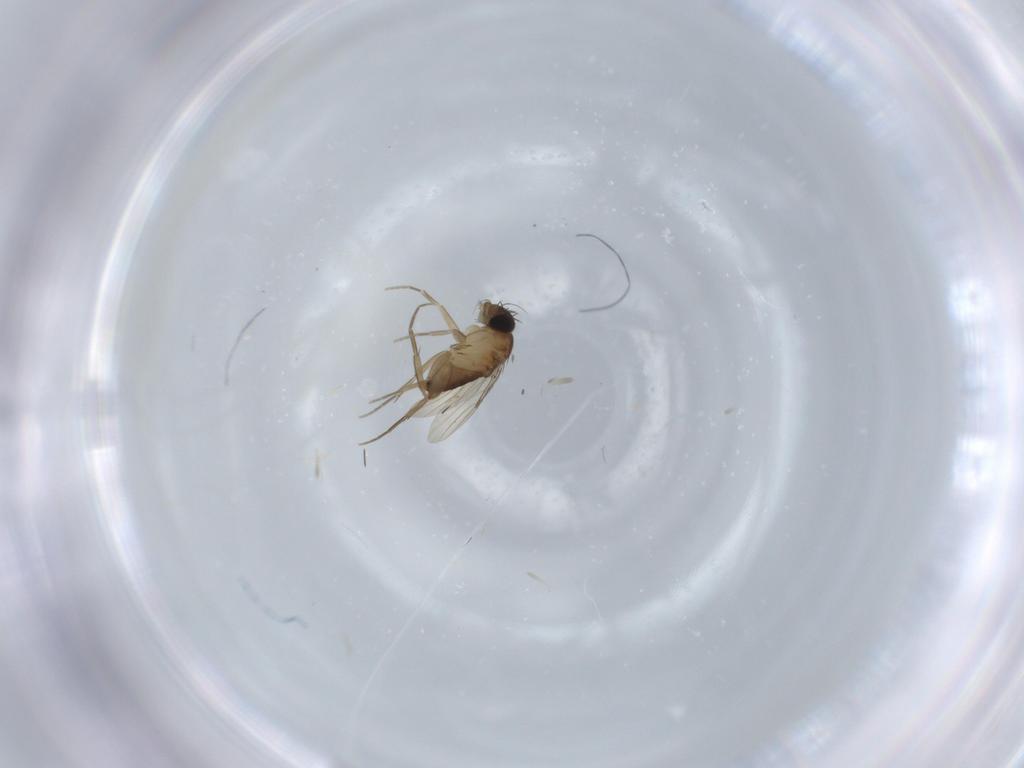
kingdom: Animalia
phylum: Arthropoda
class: Insecta
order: Diptera
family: Phoridae
